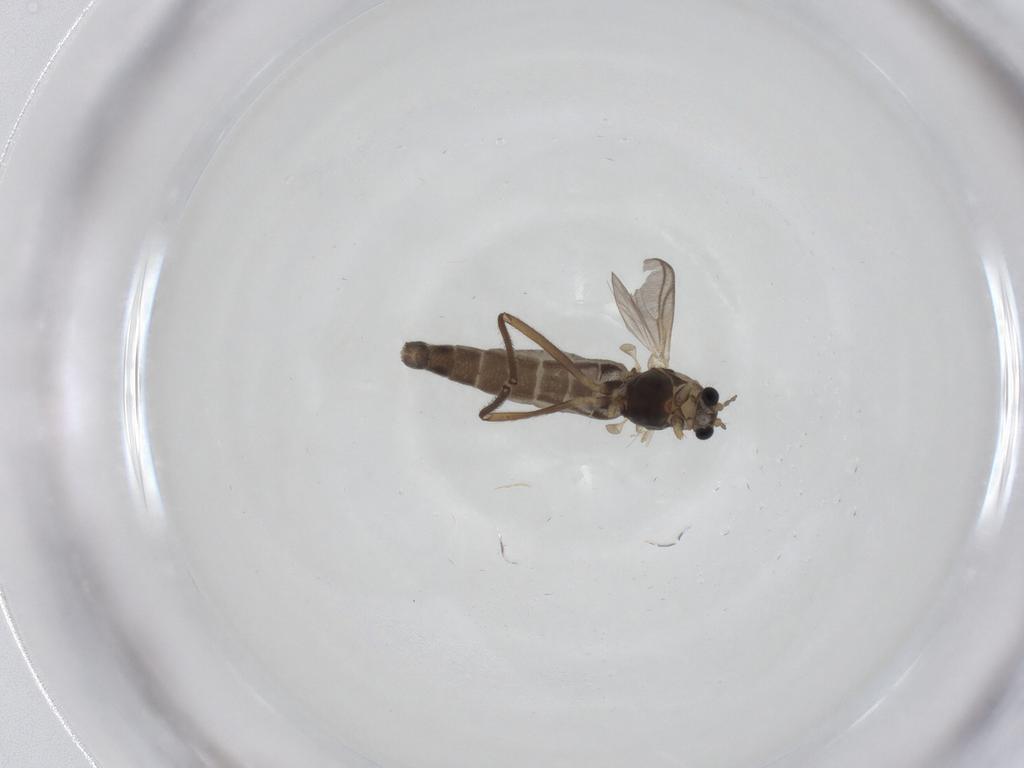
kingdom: Animalia
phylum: Arthropoda
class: Insecta
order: Diptera
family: Chironomidae
